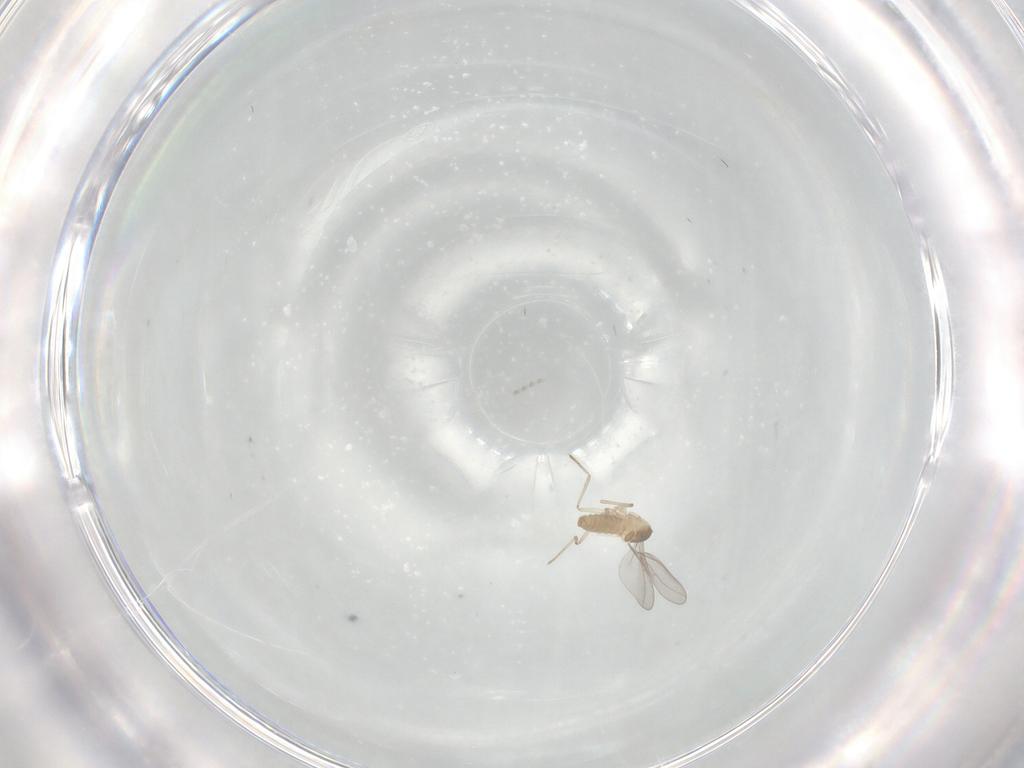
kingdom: Animalia
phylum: Arthropoda
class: Insecta
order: Diptera
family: Cecidomyiidae
